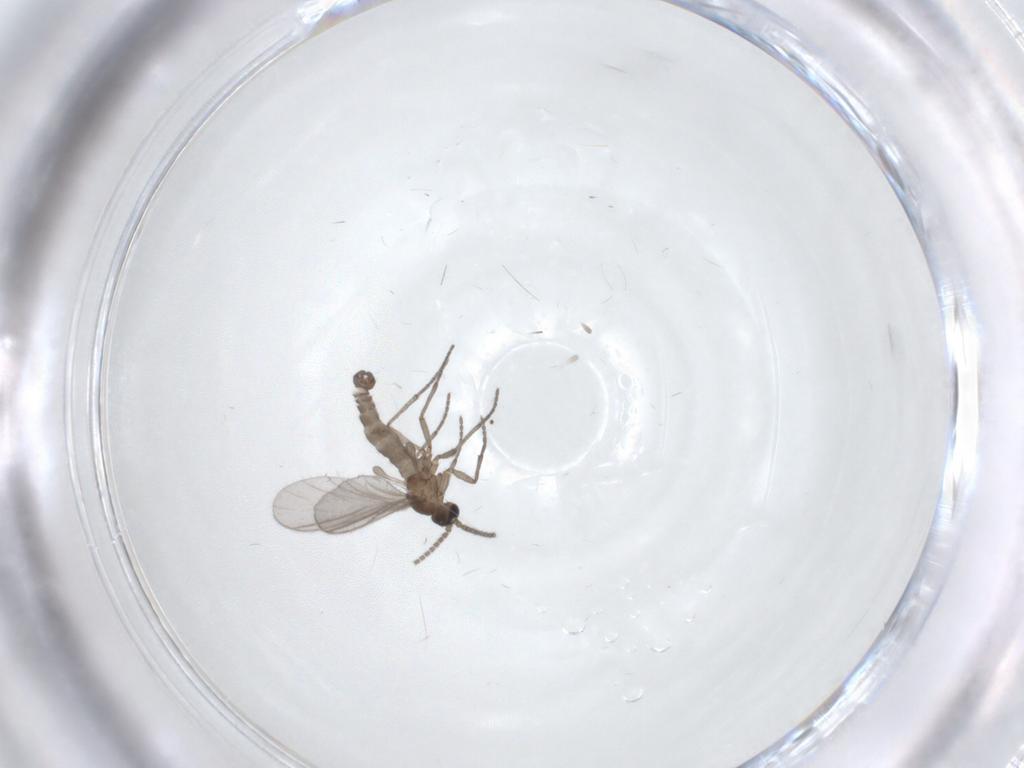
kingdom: Animalia
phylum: Arthropoda
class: Insecta
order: Diptera
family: Sciaridae
